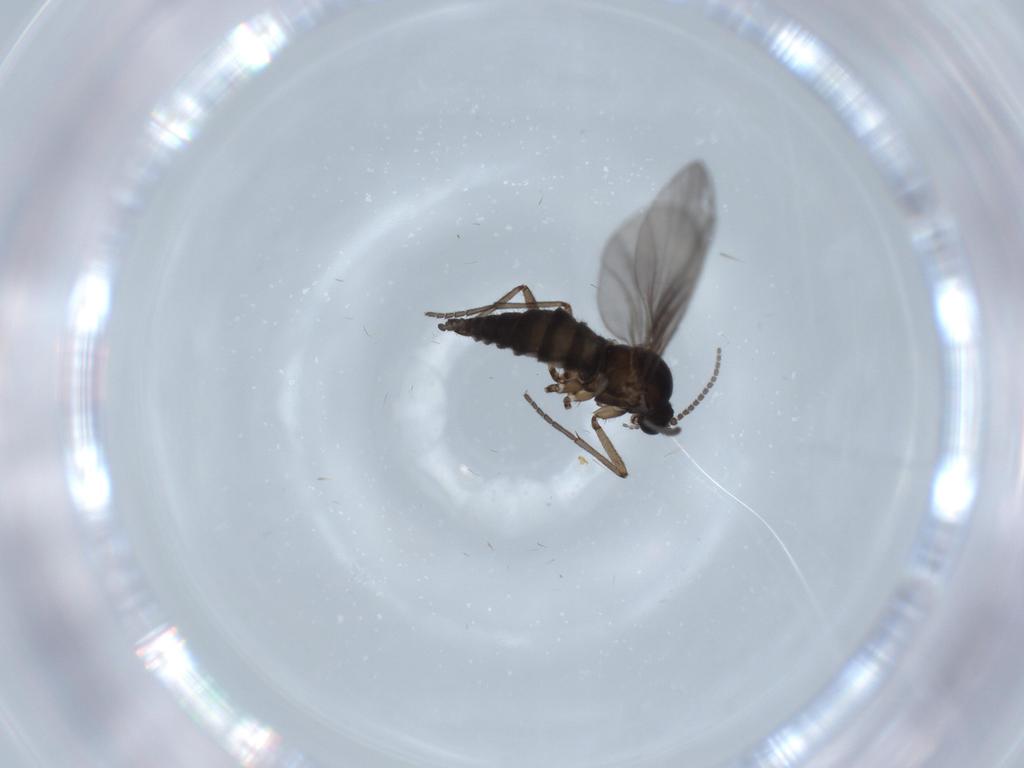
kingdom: Animalia
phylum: Arthropoda
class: Insecta
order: Diptera
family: Sciaridae
